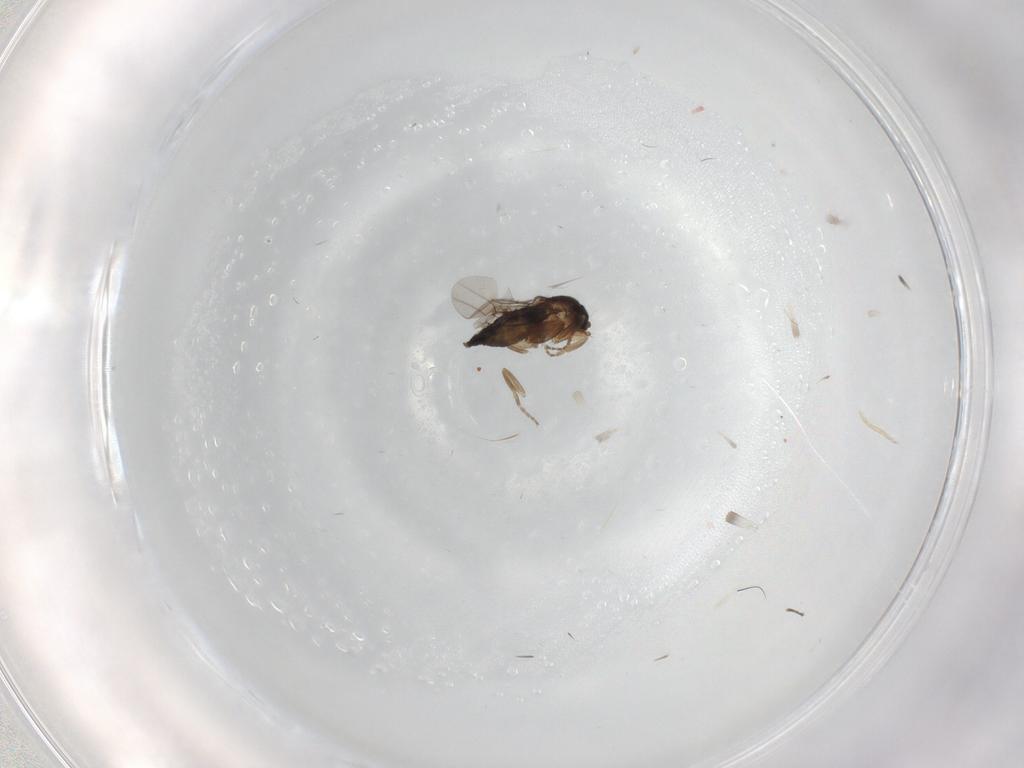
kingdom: Animalia
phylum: Arthropoda
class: Insecta
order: Diptera
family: Phoridae
